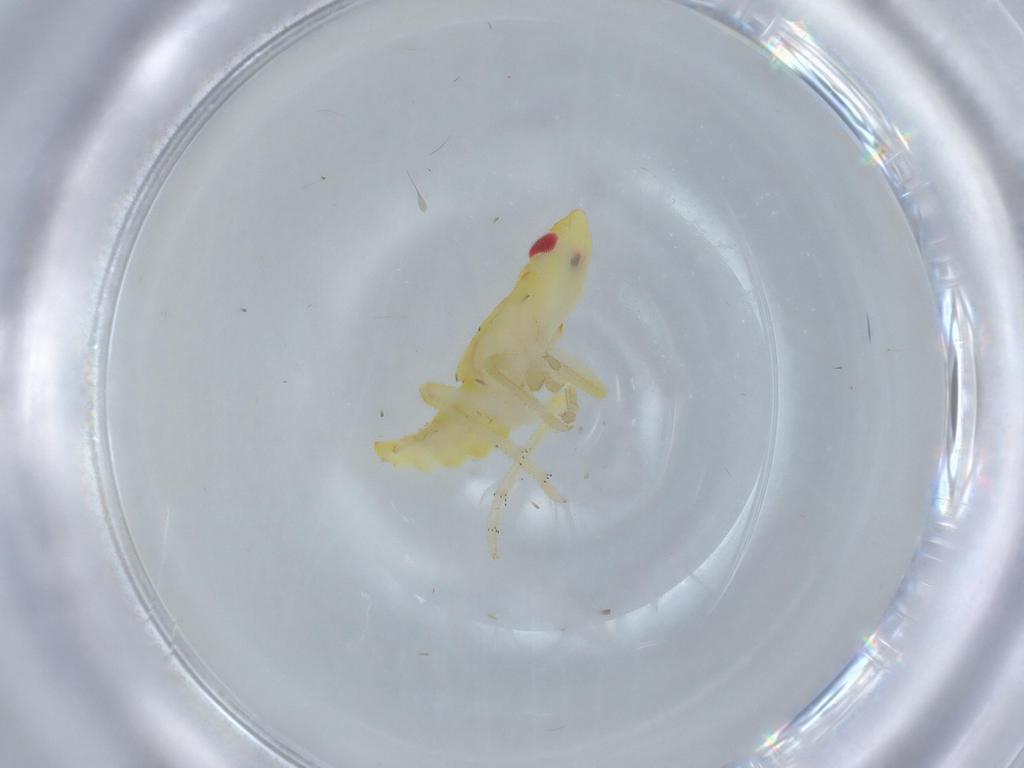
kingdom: Animalia
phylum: Arthropoda
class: Insecta
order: Hemiptera
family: Tropiduchidae
